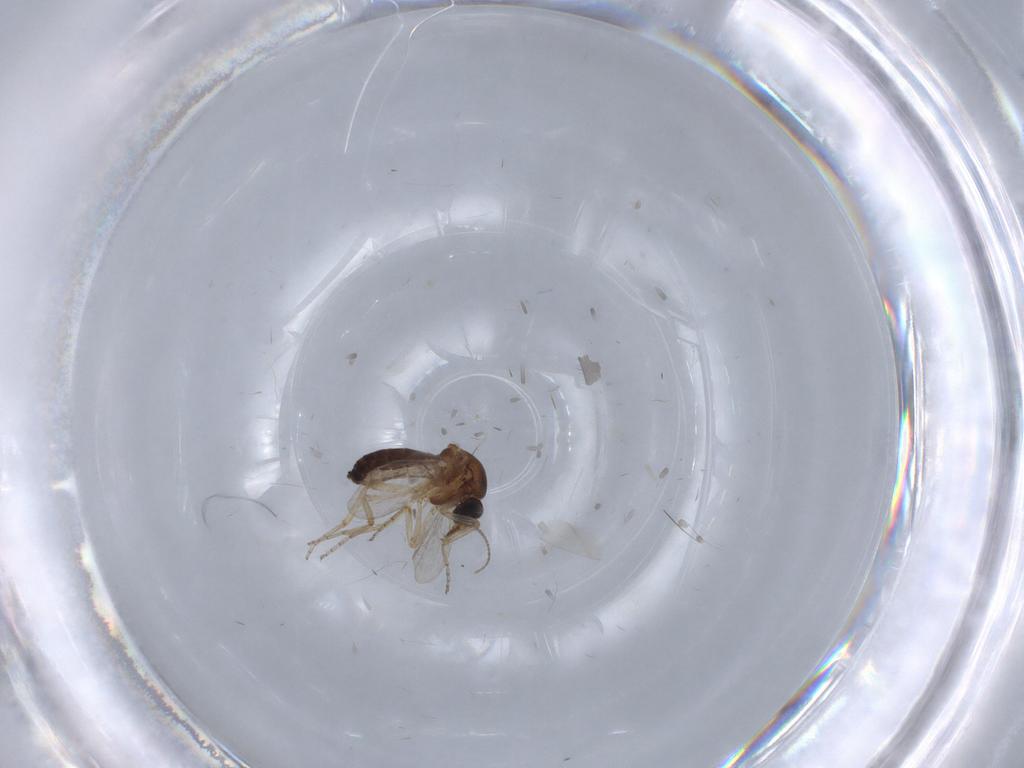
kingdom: Animalia
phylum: Arthropoda
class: Insecta
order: Diptera
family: Ceratopogonidae
